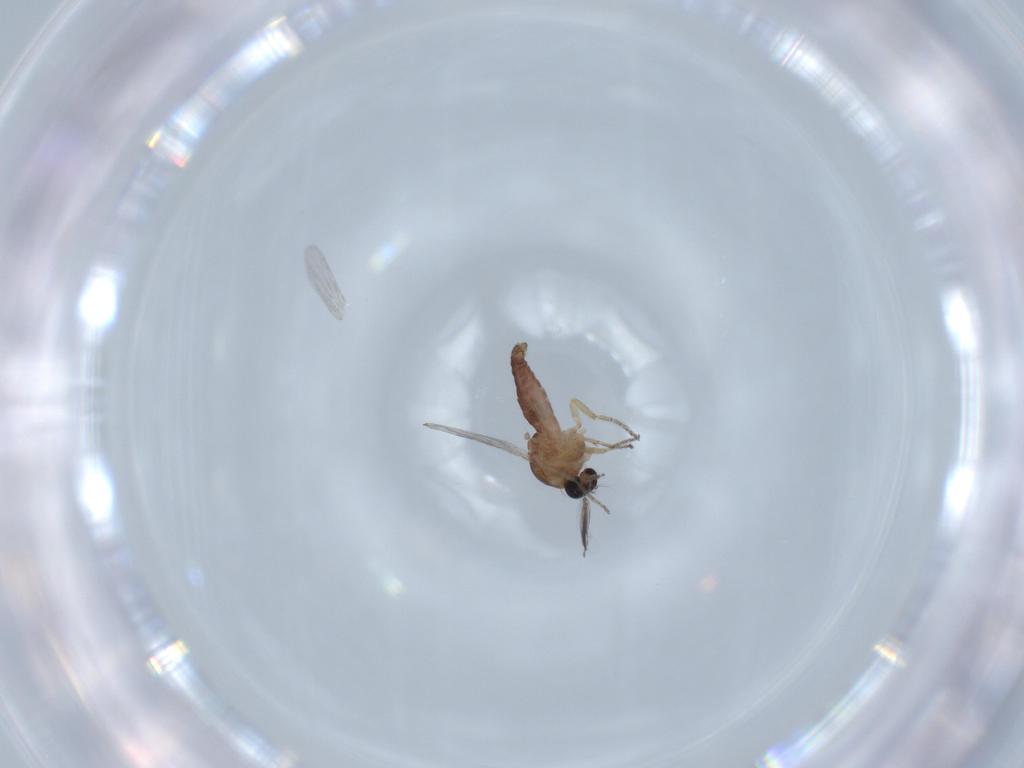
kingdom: Animalia
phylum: Arthropoda
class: Insecta
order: Diptera
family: Ceratopogonidae
